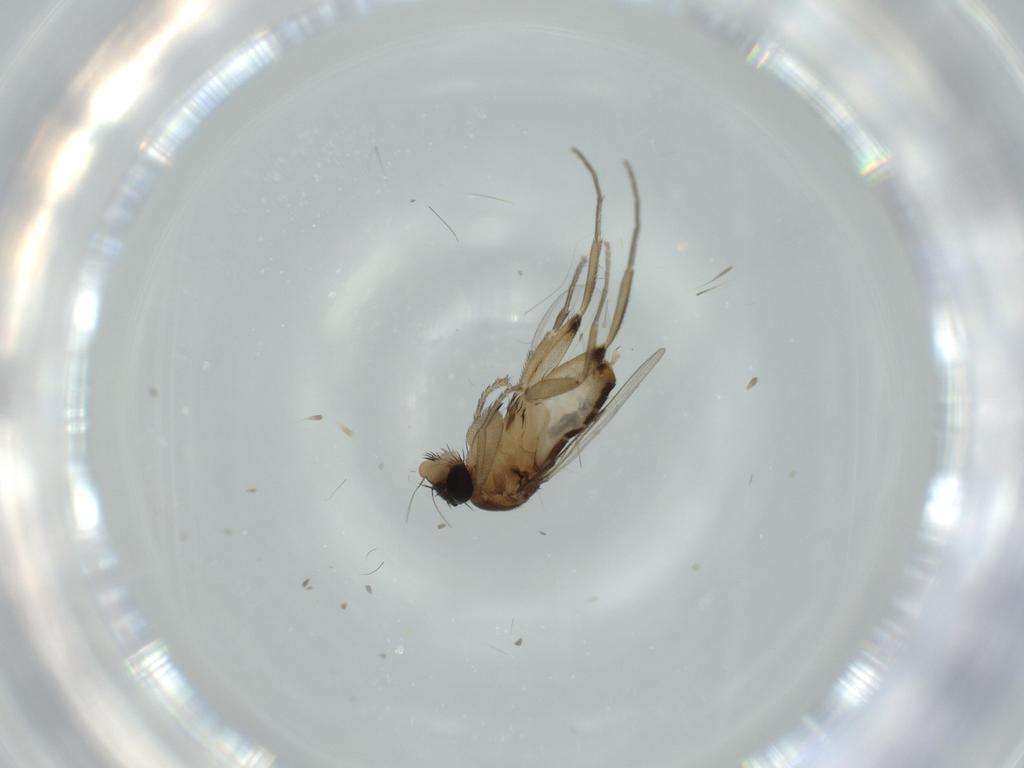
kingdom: Animalia
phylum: Arthropoda
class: Insecta
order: Diptera
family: Phoridae
